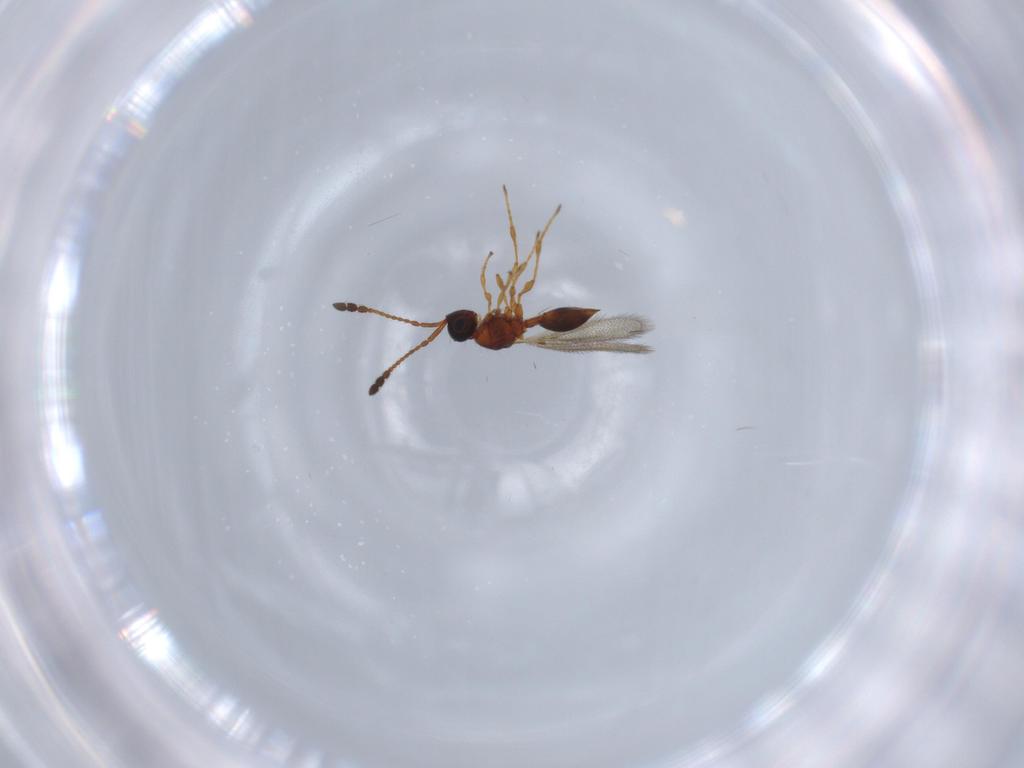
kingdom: Animalia
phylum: Arthropoda
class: Insecta
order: Hymenoptera
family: Diapriidae
